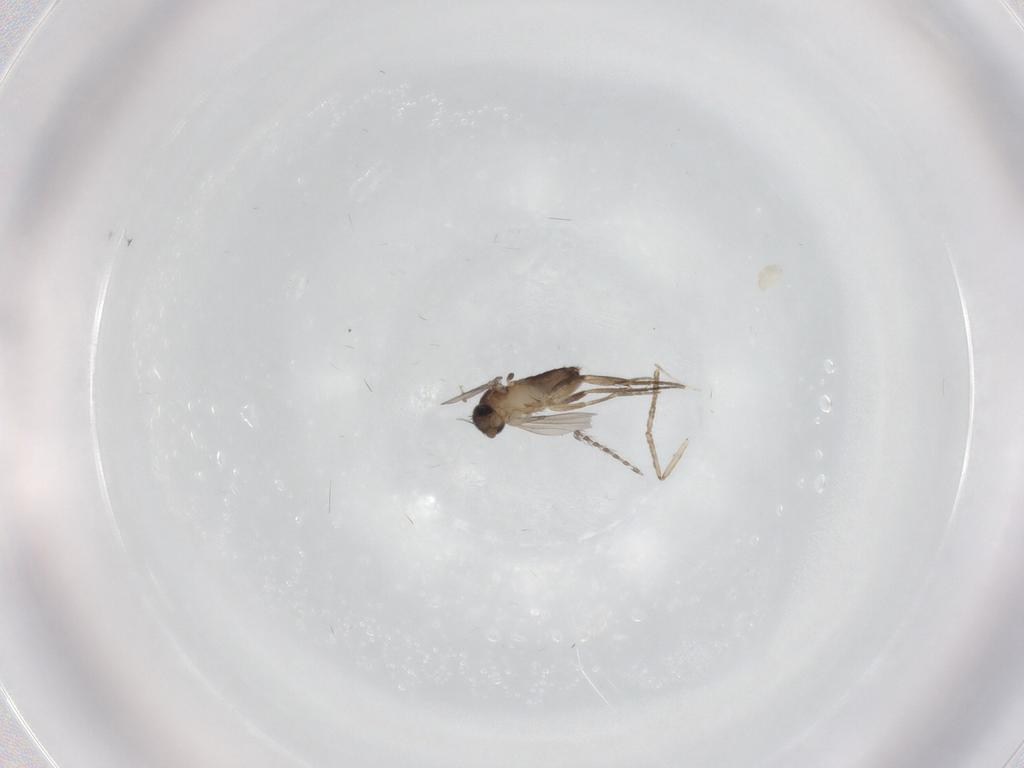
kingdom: Animalia
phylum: Arthropoda
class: Insecta
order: Diptera
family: Phoridae
